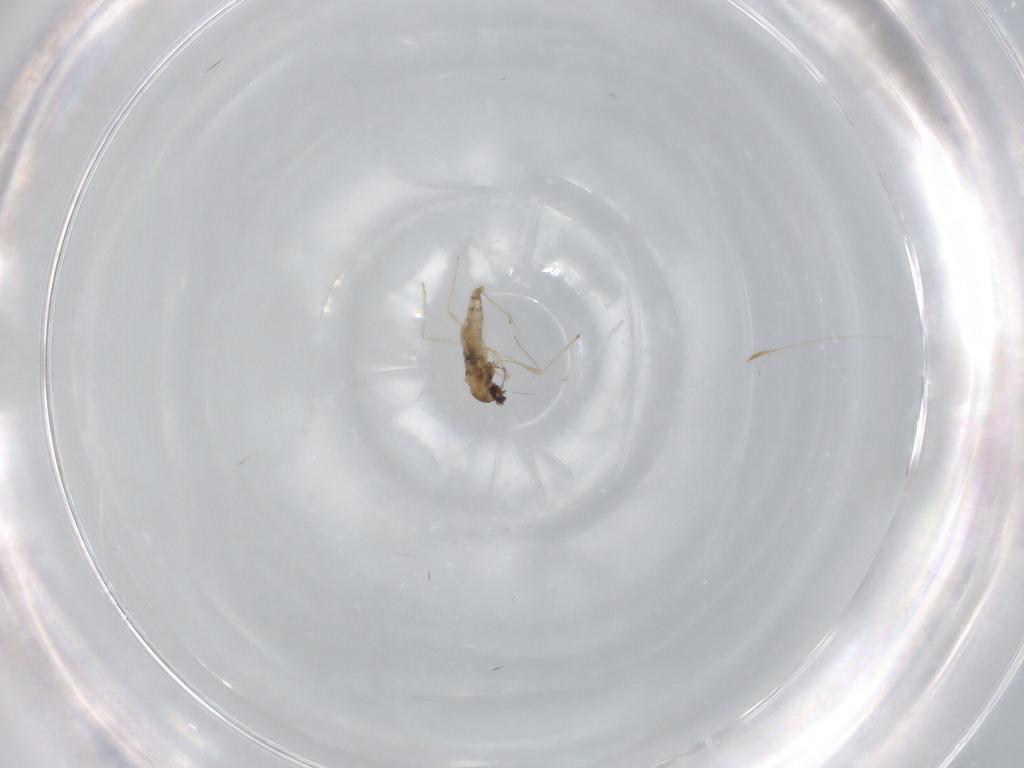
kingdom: Animalia
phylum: Arthropoda
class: Insecta
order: Diptera
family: Cecidomyiidae
